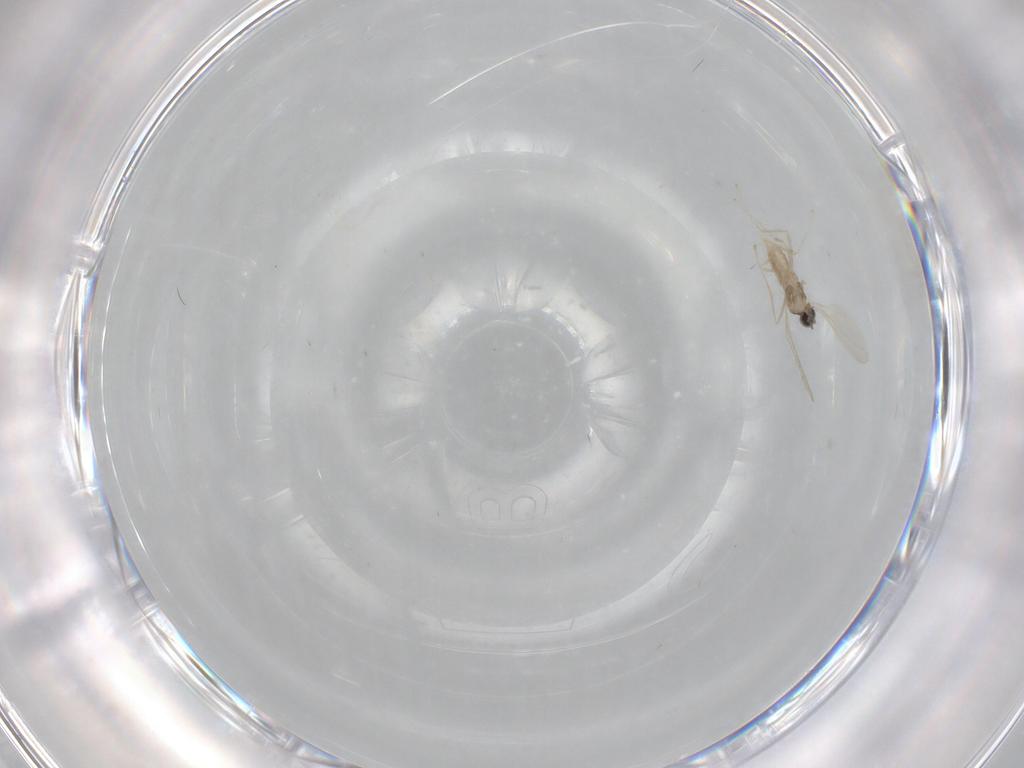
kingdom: Animalia
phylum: Arthropoda
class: Insecta
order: Diptera
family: Cecidomyiidae
